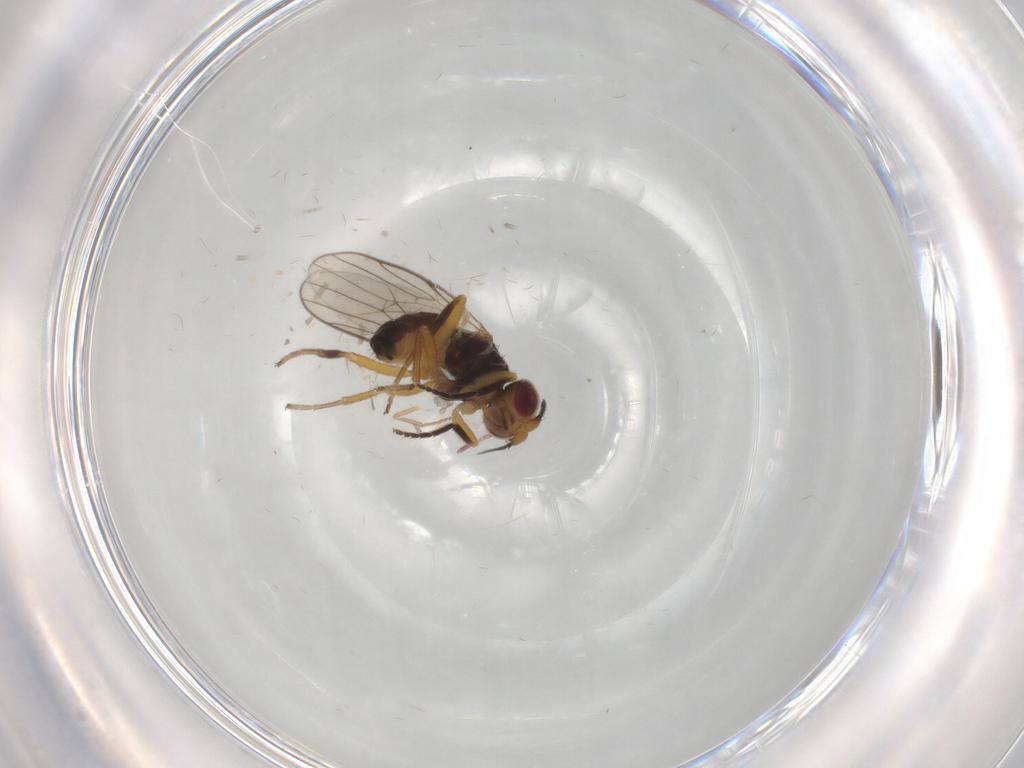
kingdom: Animalia
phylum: Arthropoda
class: Insecta
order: Diptera
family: Chloropidae
